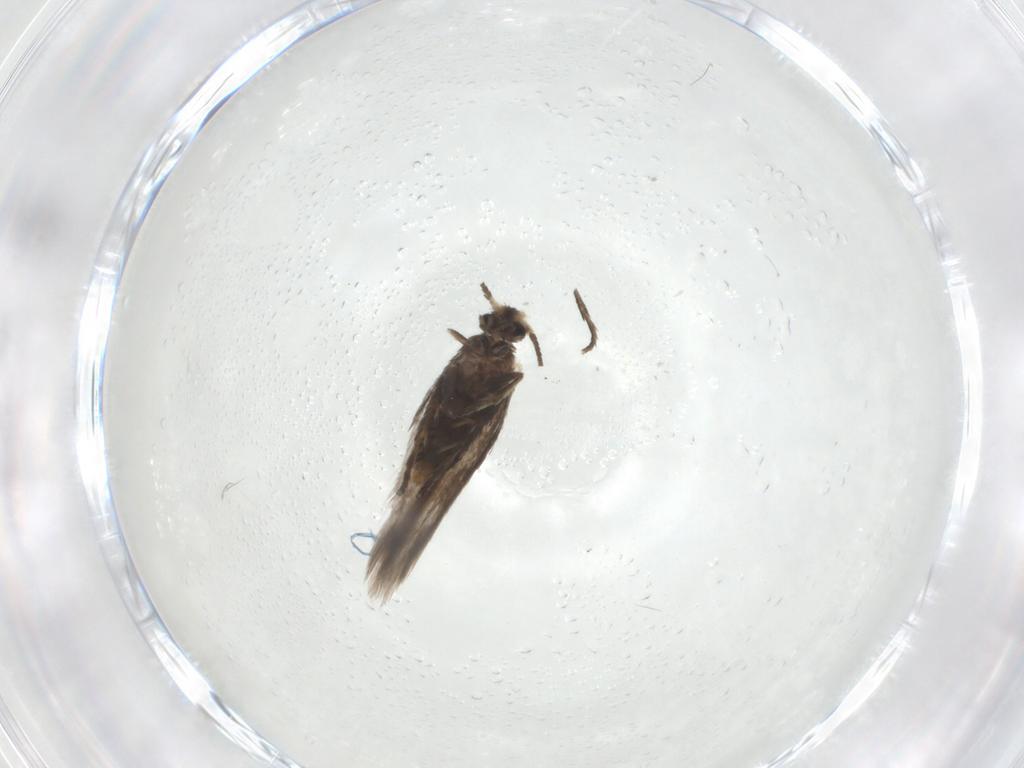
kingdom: Animalia
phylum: Arthropoda
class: Insecta
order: Lepidoptera
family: Nepticulidae
